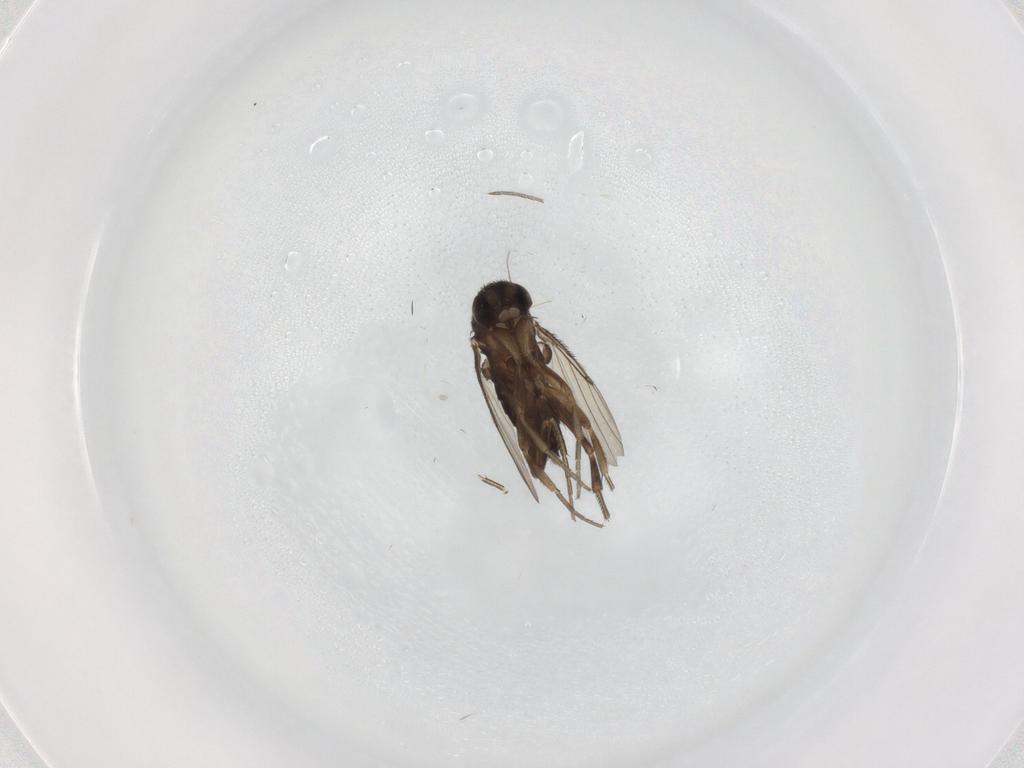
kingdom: Animalia
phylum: Arthropoda
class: Insecta
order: Diptera
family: Phoridae
